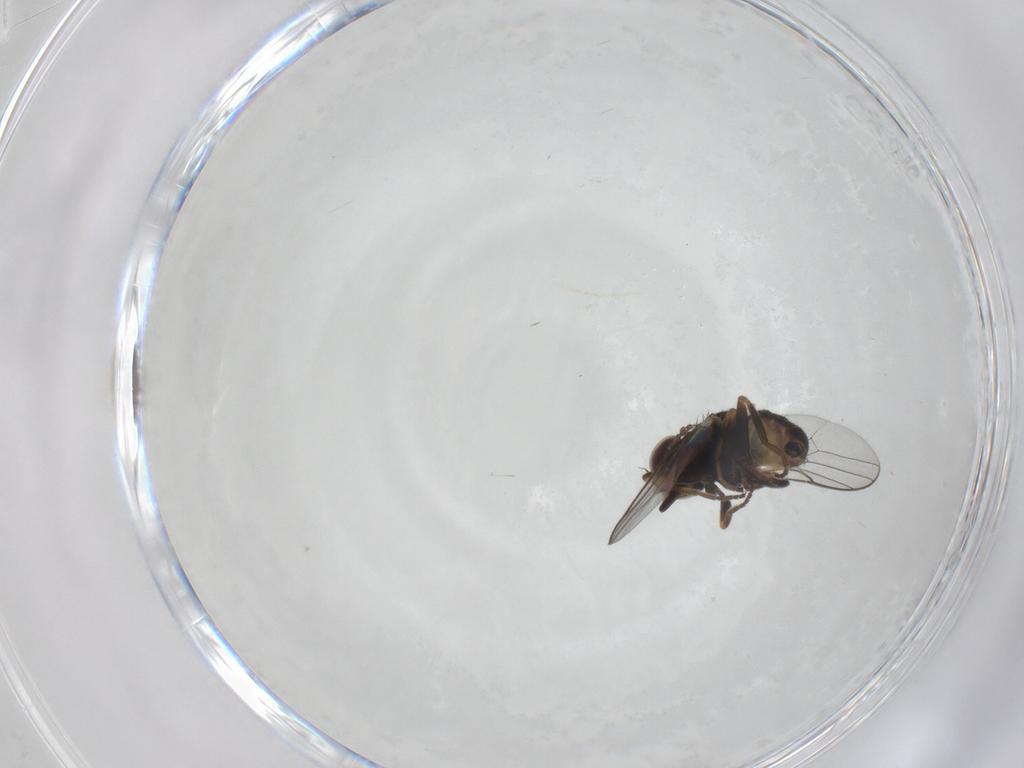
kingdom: Animalia
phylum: Arthropoda
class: Insecta
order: Diptera
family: Chloropidae
